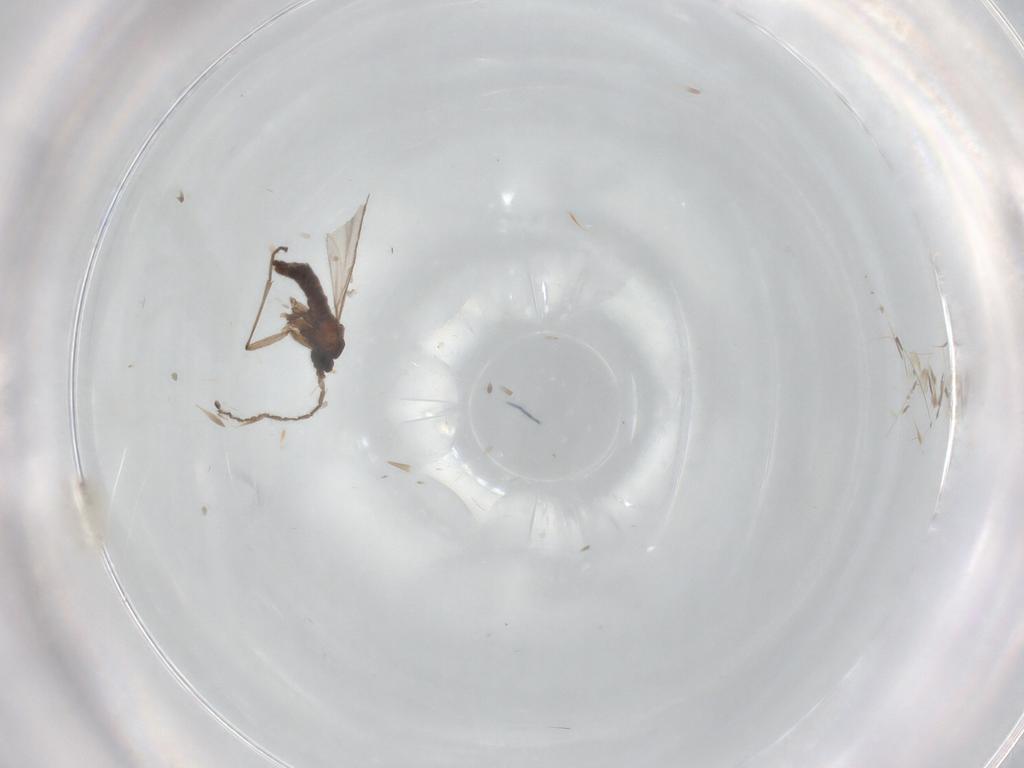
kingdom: Animalia
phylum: Arthropoda
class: Insecta
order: Diptera
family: Sciaridae
